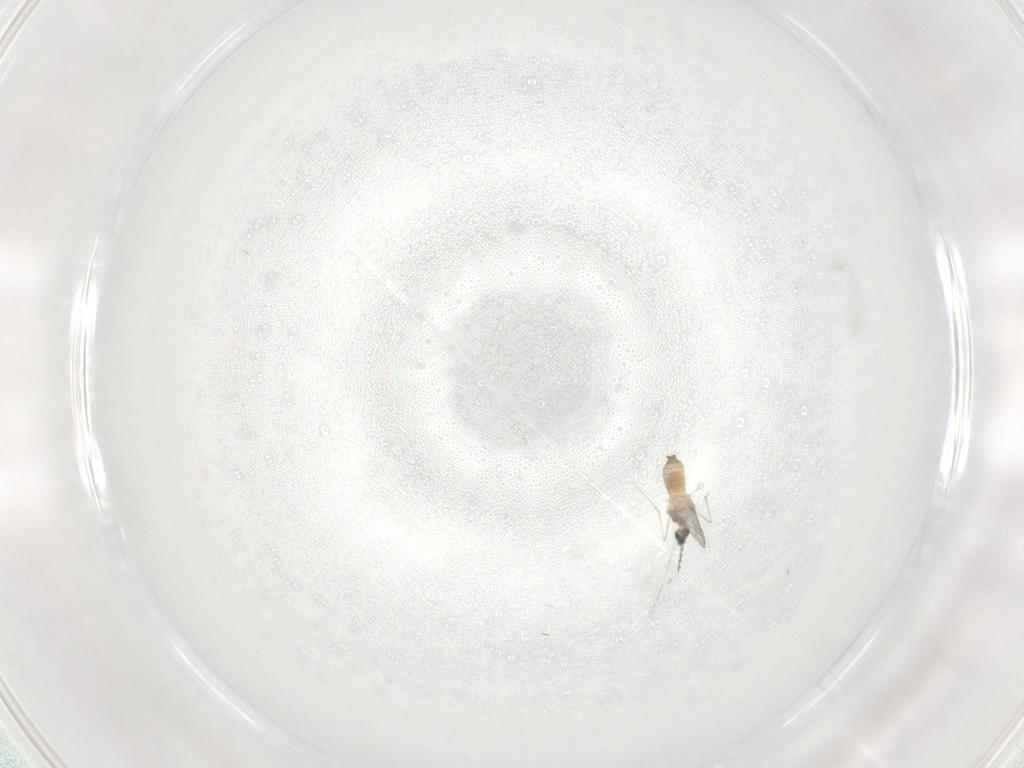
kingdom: Animalia
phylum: Arthropoda
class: Insecta
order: Diptera
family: Cecidomyiidae
